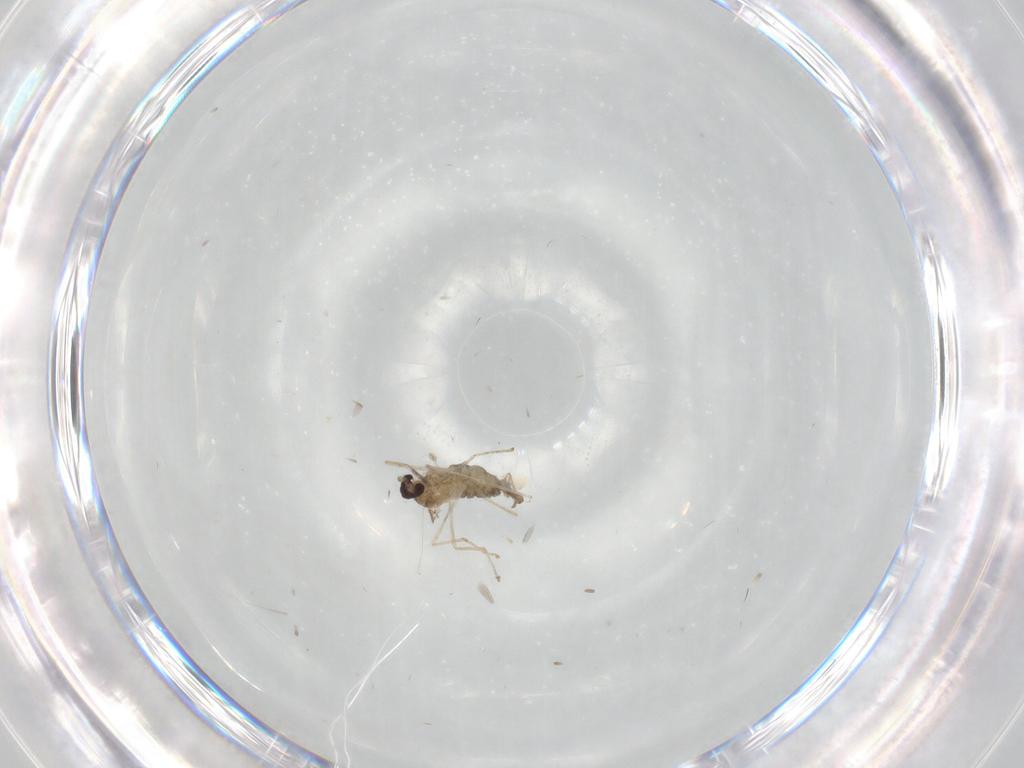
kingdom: Animalia
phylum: Arthropoda
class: Insecta
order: Diptera
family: Cecidomyiidae
